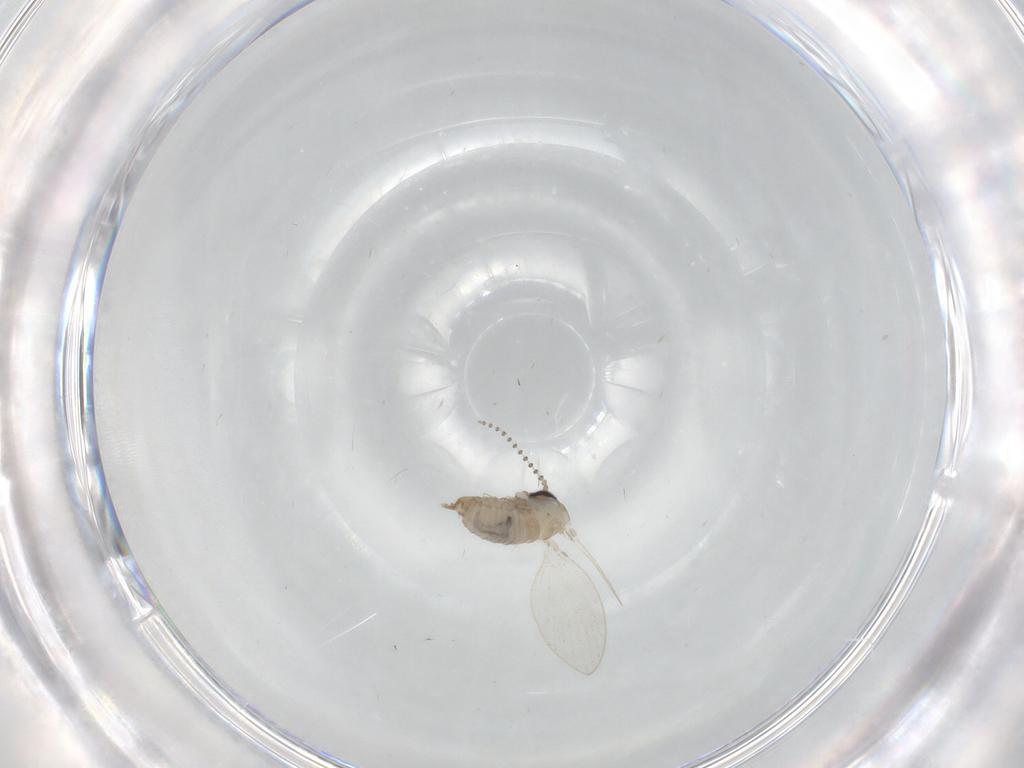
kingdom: Animalia
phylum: Arthropoda
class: Insecta
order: Diptera
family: Psychodidae
